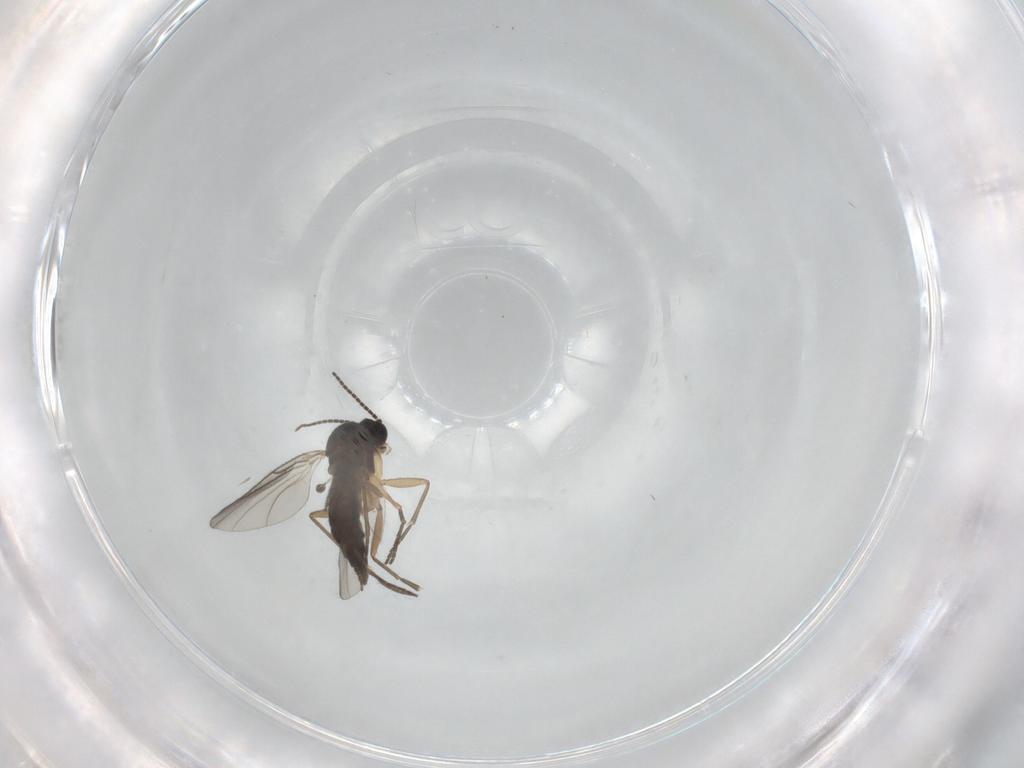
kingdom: Animalia
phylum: Arthropoda
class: Insecta
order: Diptera
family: Sciaridae
